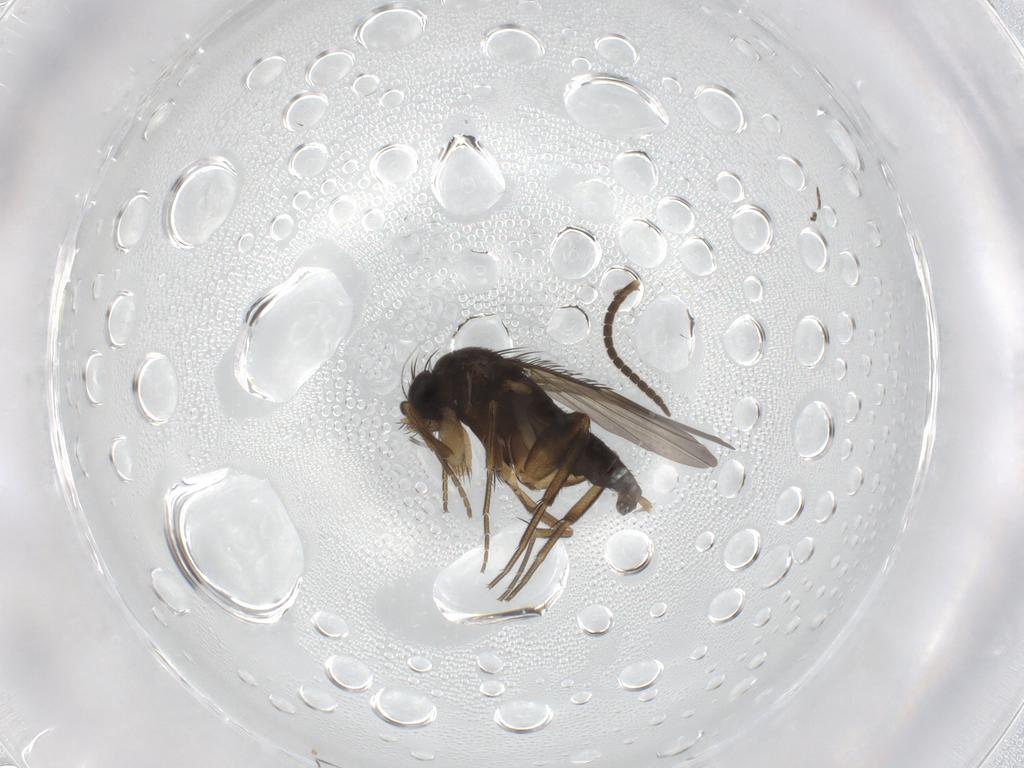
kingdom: Animalia
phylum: Arthropoda
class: Insecta
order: Diptera
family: Phoridae
